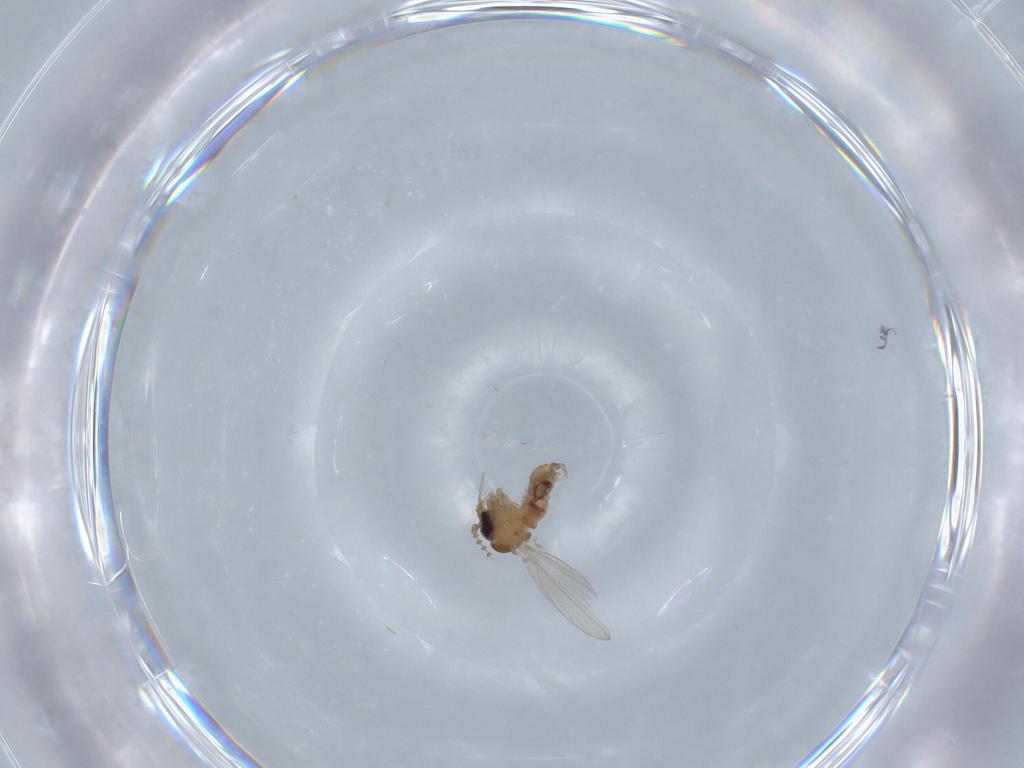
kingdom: Animalia
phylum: Arthropoda
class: Insecta
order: Diptera
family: Psychodidae
